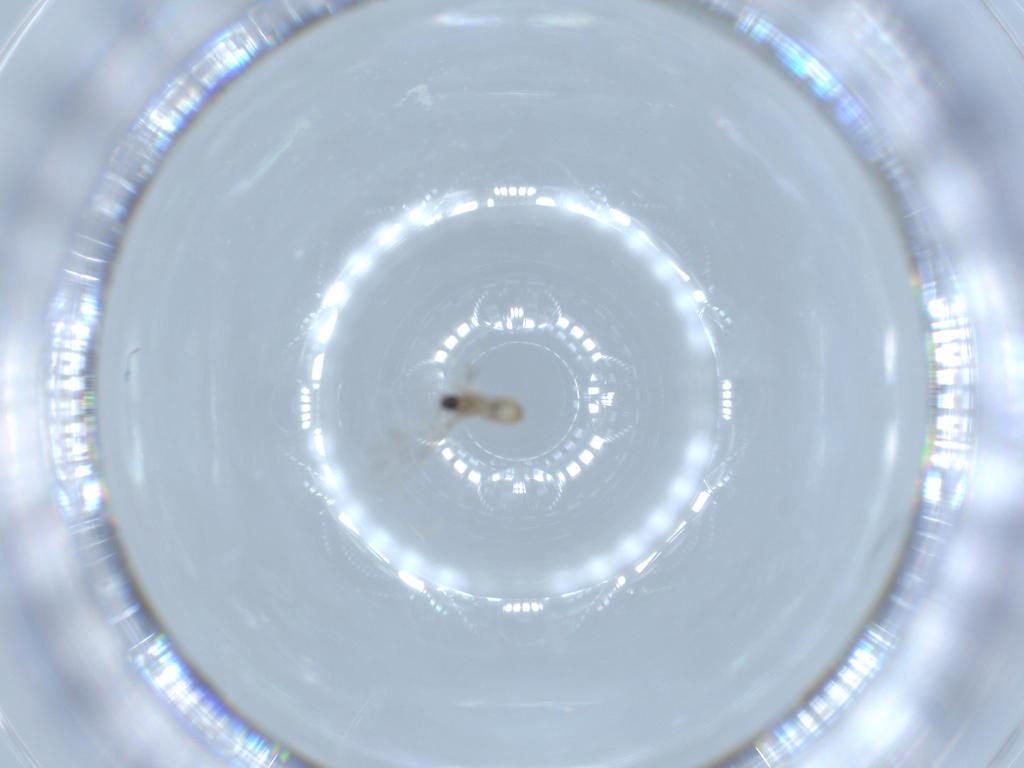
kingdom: Animalia
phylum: Arthropoda
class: Insecta
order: Diptera
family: Cecidomyiidae
